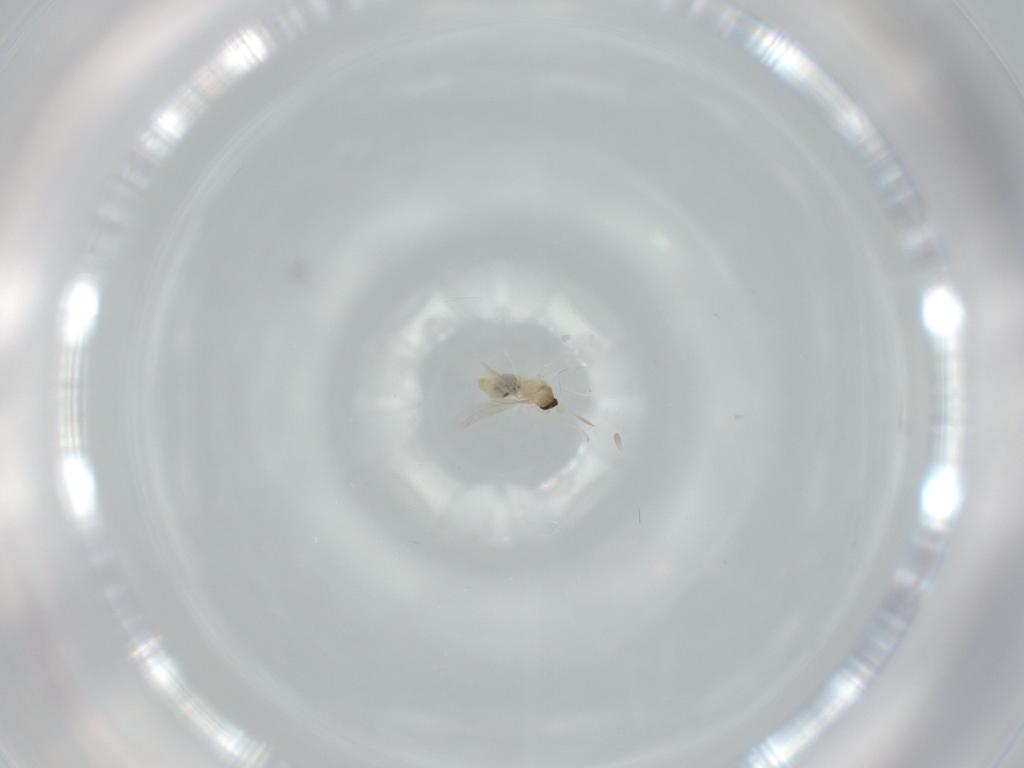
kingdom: Animalia
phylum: Arthropoda
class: Insecta
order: Diptera
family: Cecidomyiidae
